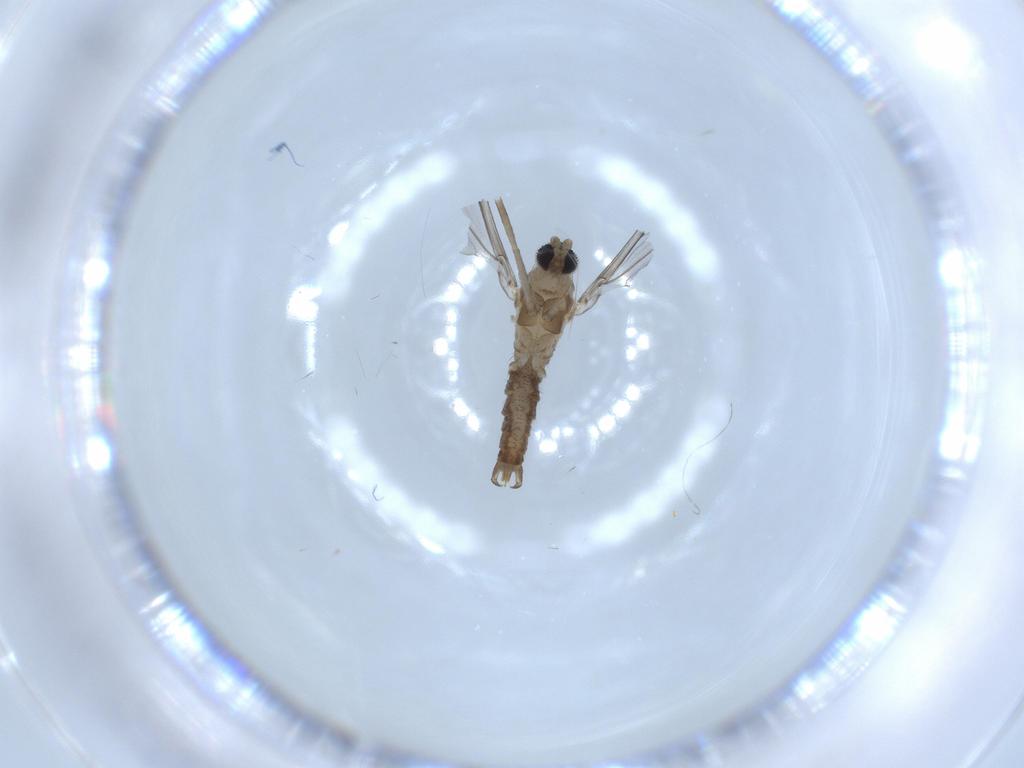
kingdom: Animalia
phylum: Arthropoda
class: Insecta
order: Diptera
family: Cecidomyiidae
